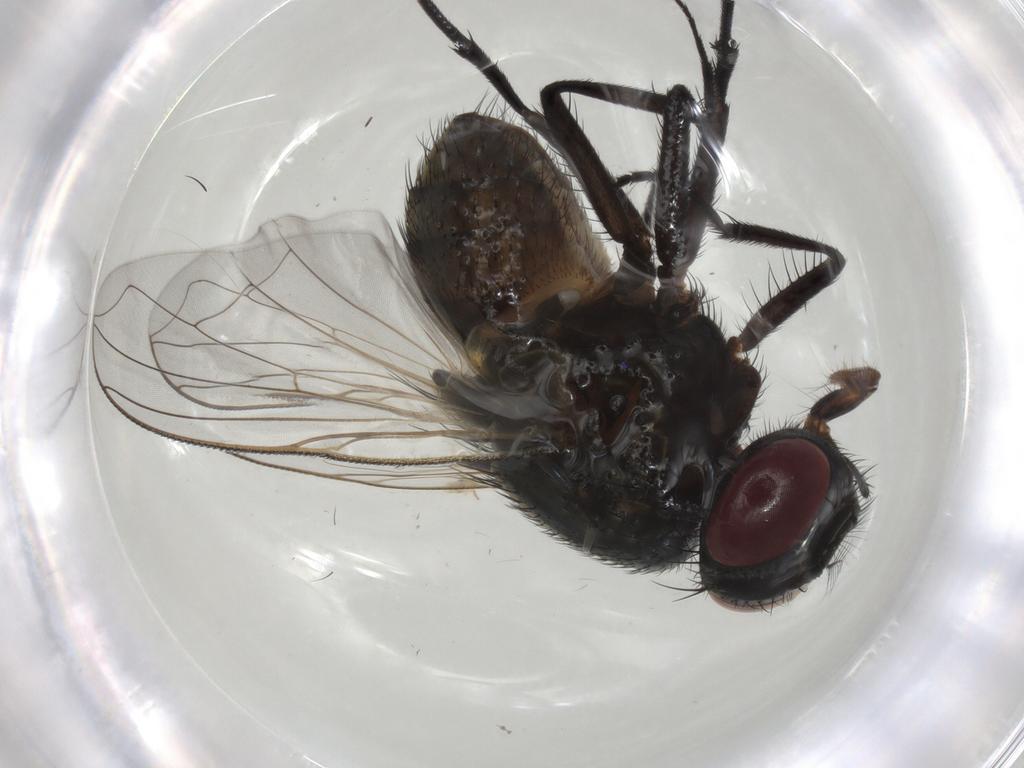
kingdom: Animalia
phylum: Arthropoda
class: Insecta
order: Diptera
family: Muscidae
